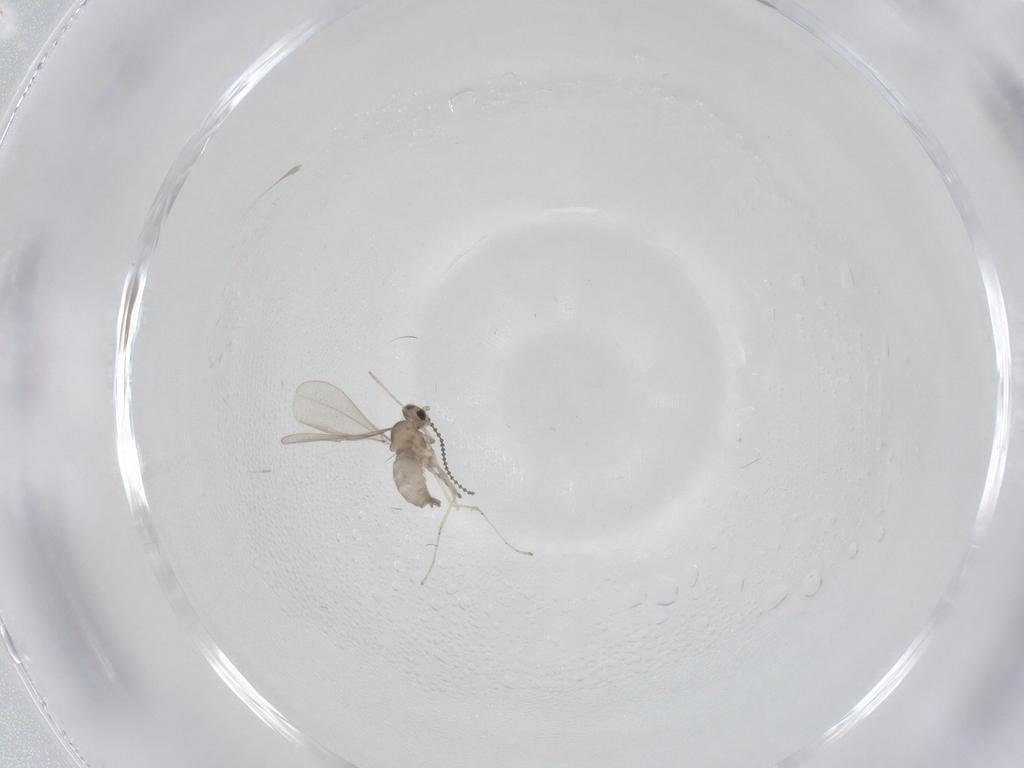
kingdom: Animalia
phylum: Arthropoda
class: Insecta
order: Diptera
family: Cecidomyiidae
